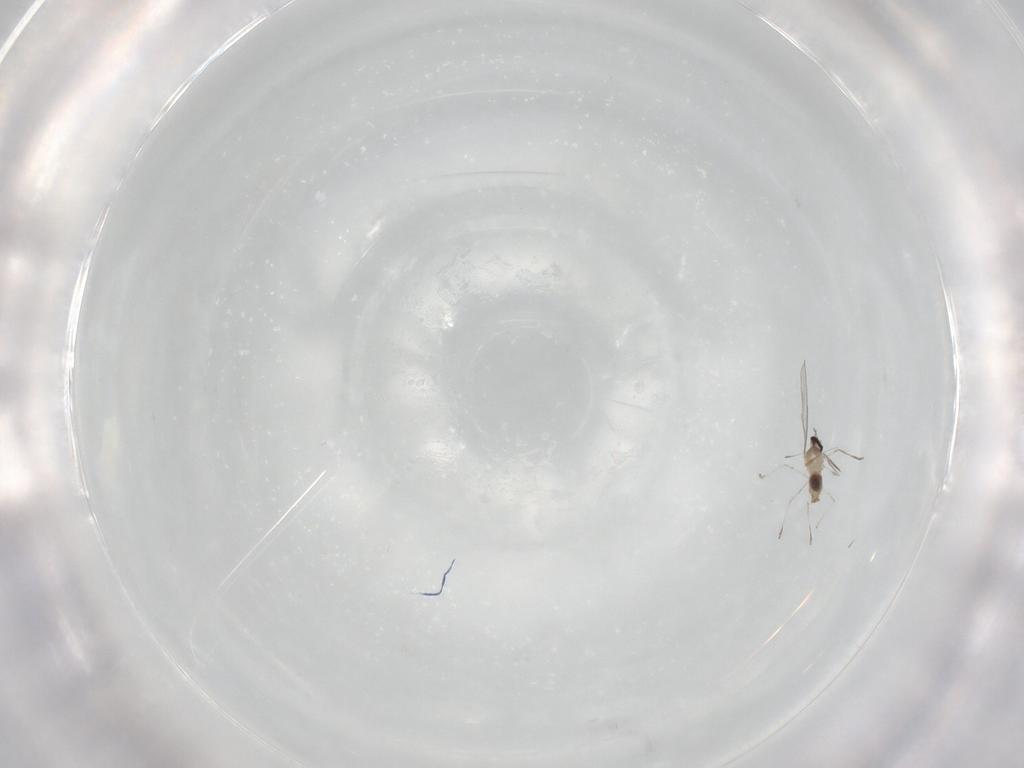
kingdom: Animalia
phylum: Arthropoda
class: Insecta
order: Diptera
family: Cecidomyiidae
